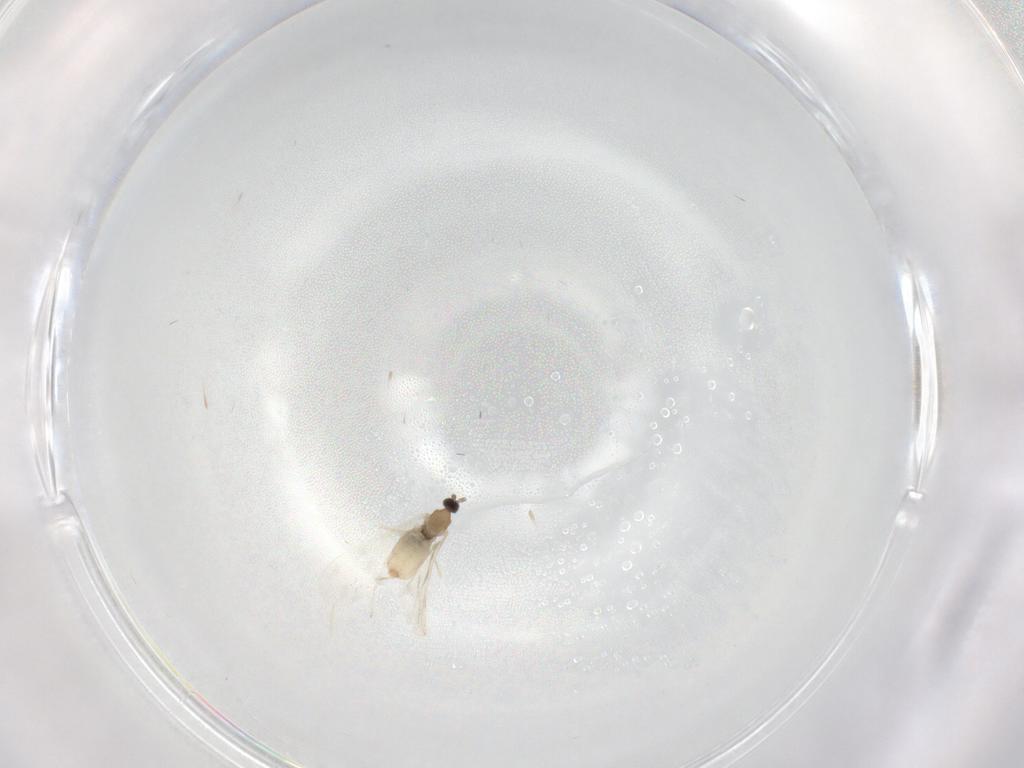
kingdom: Animalia
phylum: Arthropoda
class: Insecta
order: Diptera
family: Cecidomyiidae
